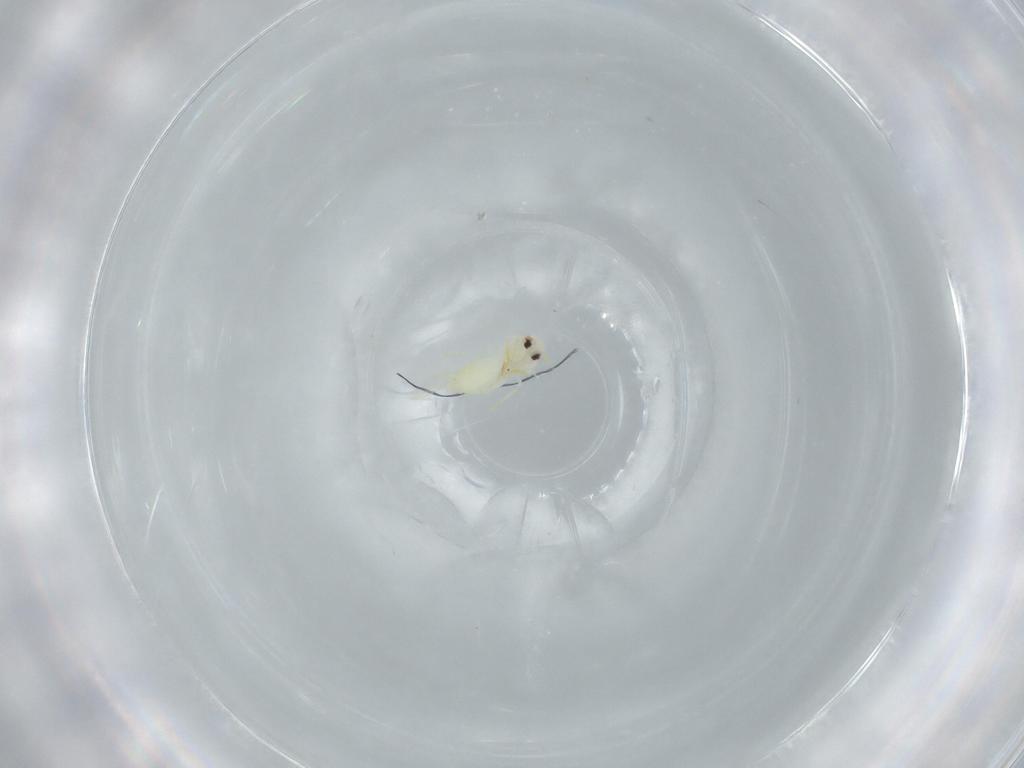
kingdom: Animalia
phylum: Arthropoda
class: Insecta
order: Hemiptera
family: Aleyrodidae
